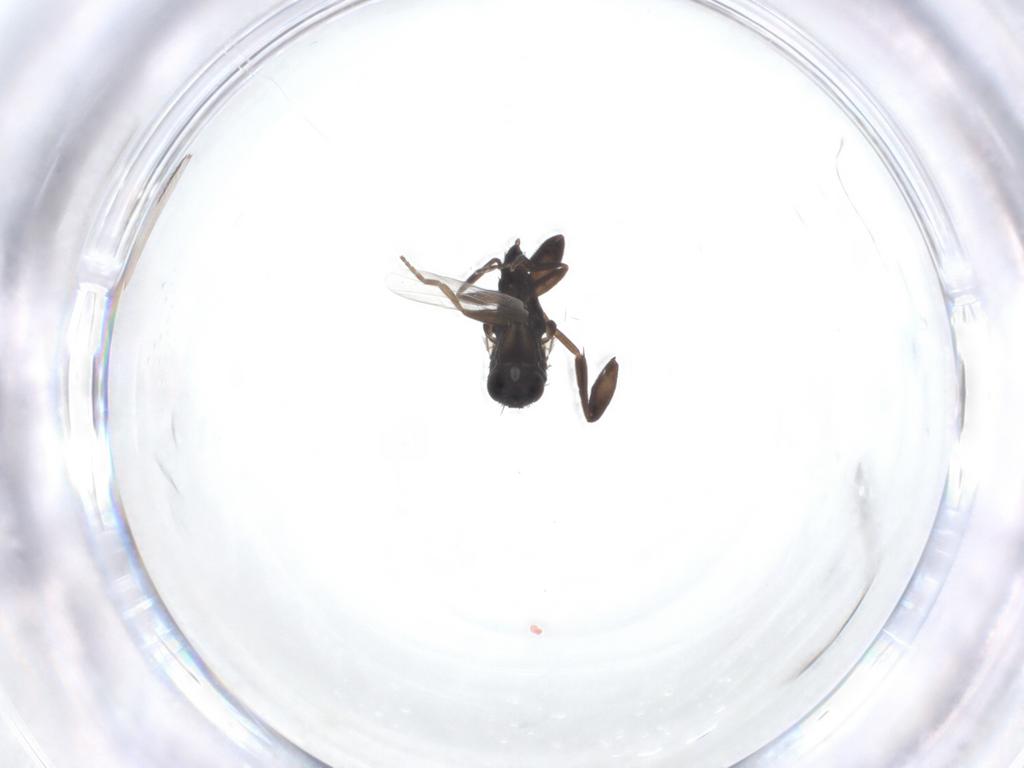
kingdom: Animalia
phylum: Arthropoda
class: Insecta
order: Diptera
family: Phoridae
